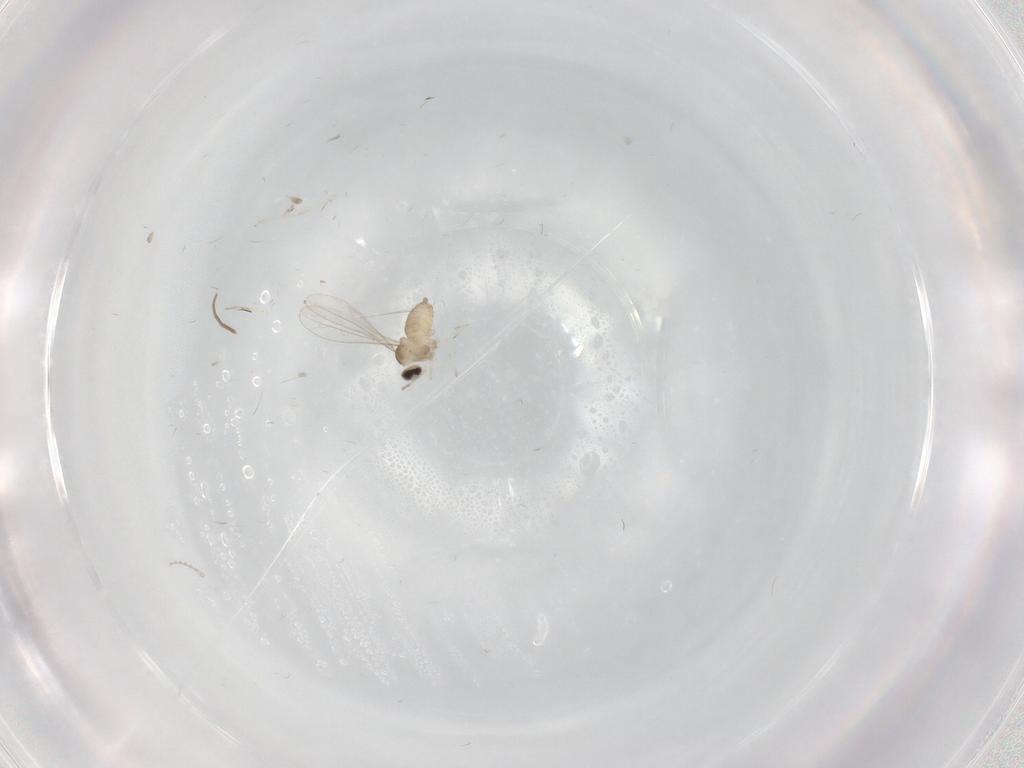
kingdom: Animalia
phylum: Arthropoda
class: Insecta
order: Diptera
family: Cecidomyiidae
